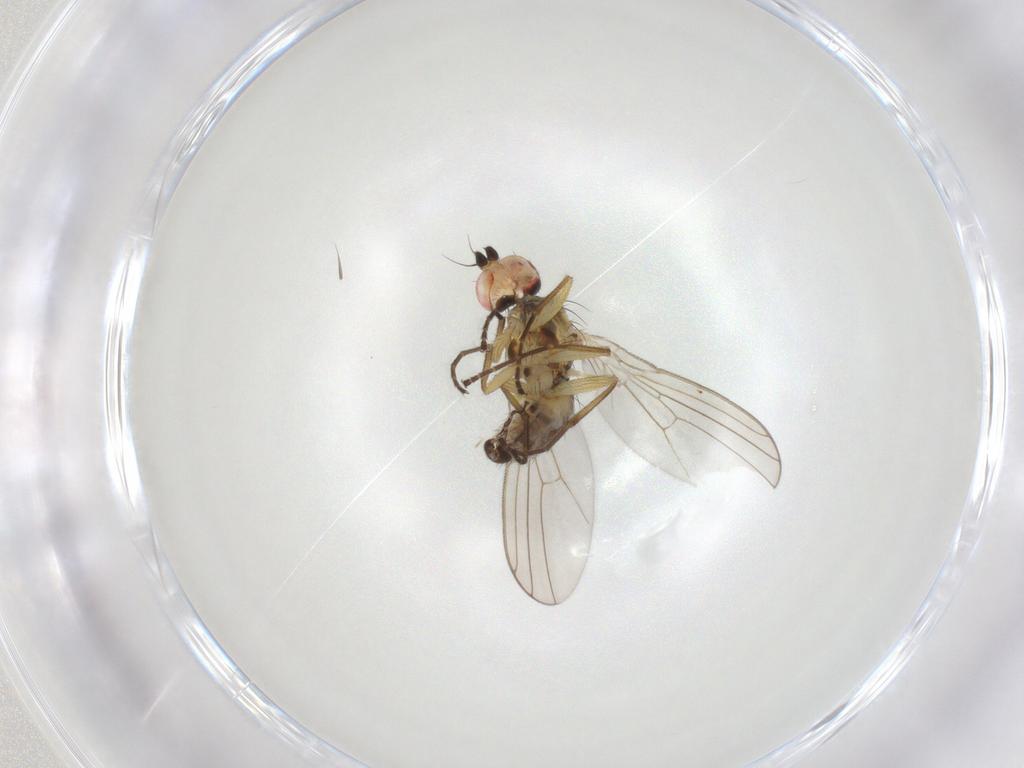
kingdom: Animalia
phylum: Arthropoda
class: Insecta
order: Diptera
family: Agromyzidae
